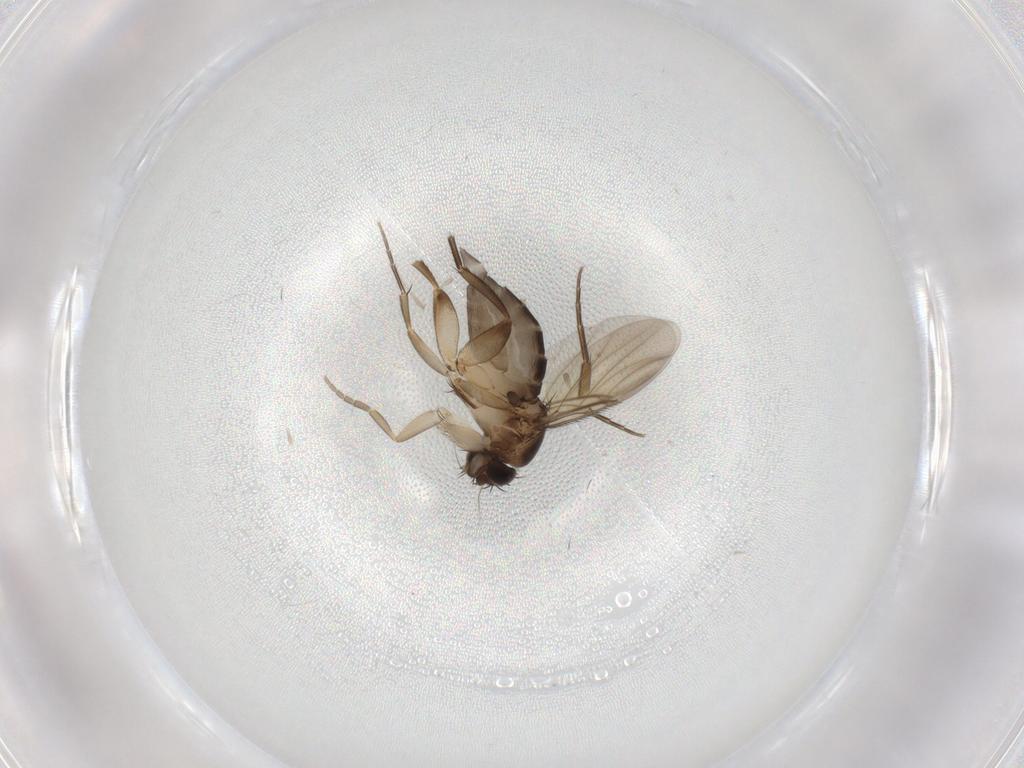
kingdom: Animalia
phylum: Arthropoda
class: Insecta
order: Diptera
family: Phoridae
